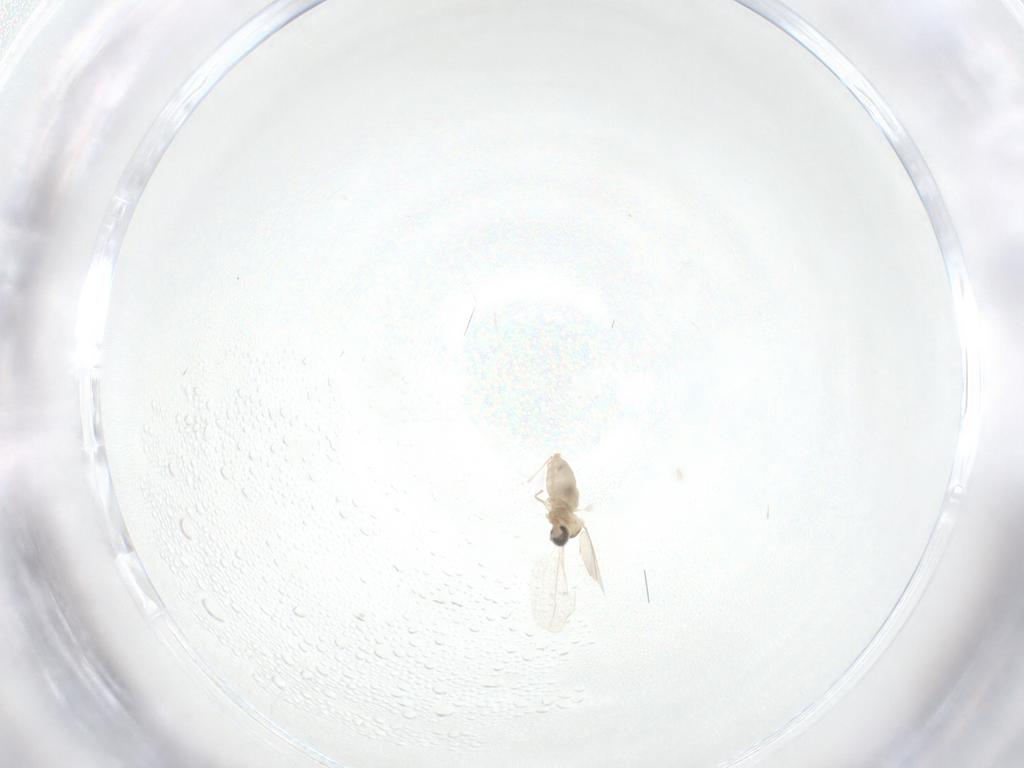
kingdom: Animalia
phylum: Arthropoda
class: Insecta
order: Diptera
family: Cecidomyiidae
